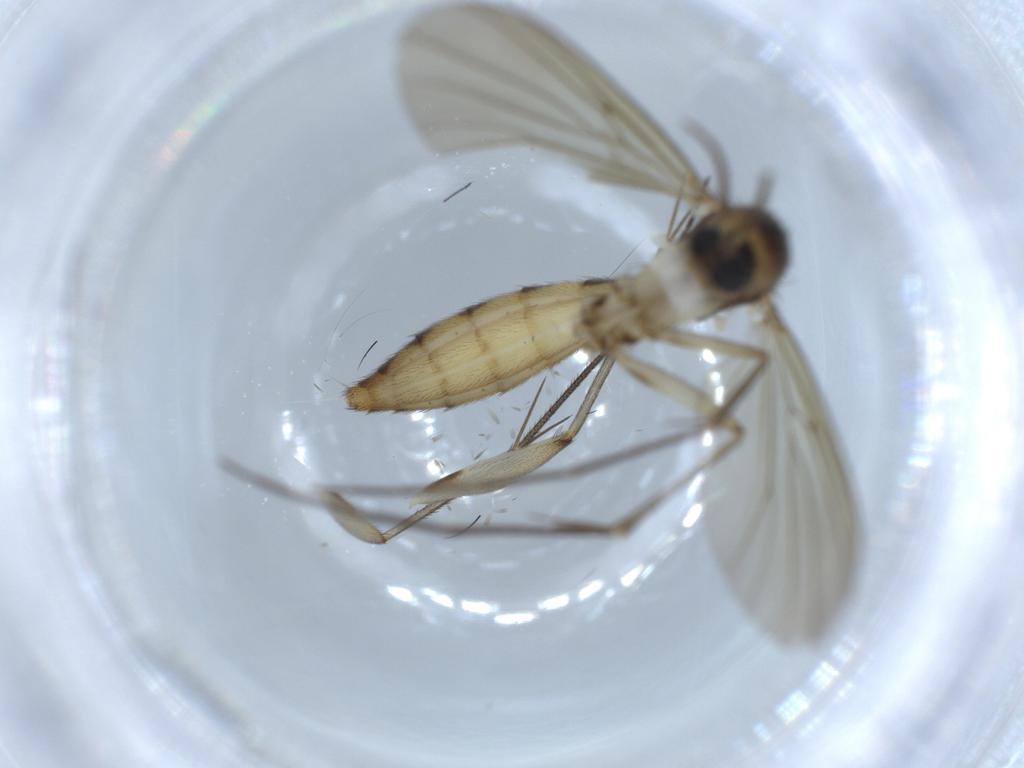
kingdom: Animalia
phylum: Arthropoda
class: Insecta
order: Diptera
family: Mycetophilidae
